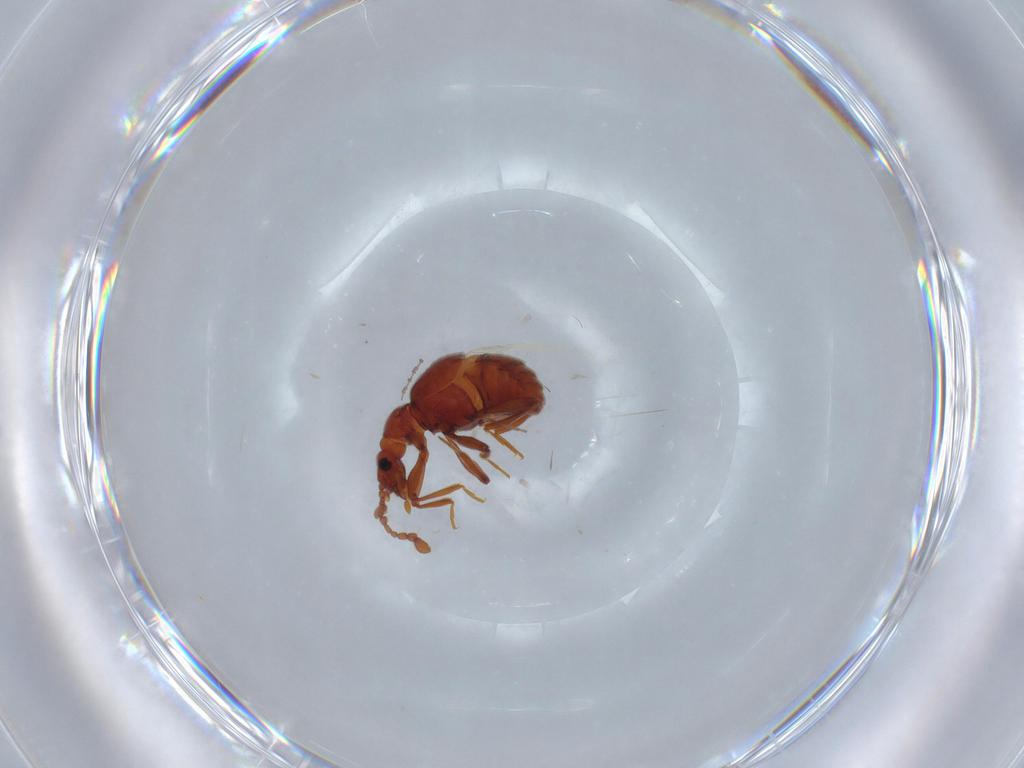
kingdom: Animalia
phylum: Arthropoda
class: Insecta
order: Coleoptera
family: Staphylinidae
